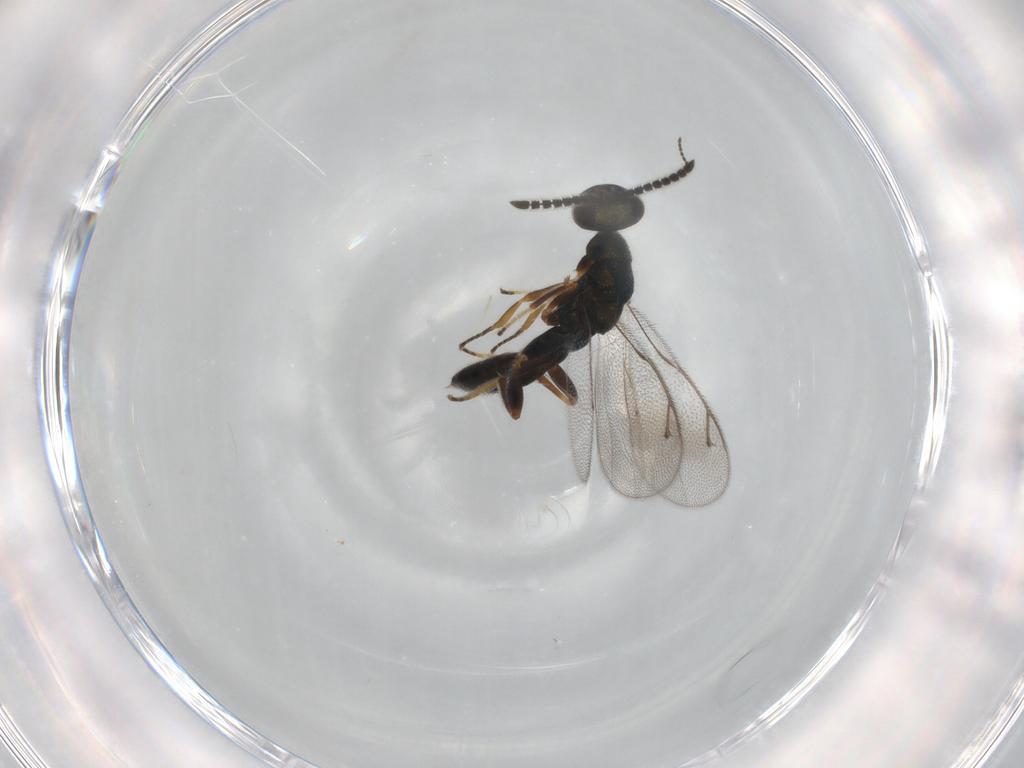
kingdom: Animalia
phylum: Arthropoda
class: Insecta
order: Hymenoptera
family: Cleonyminae
